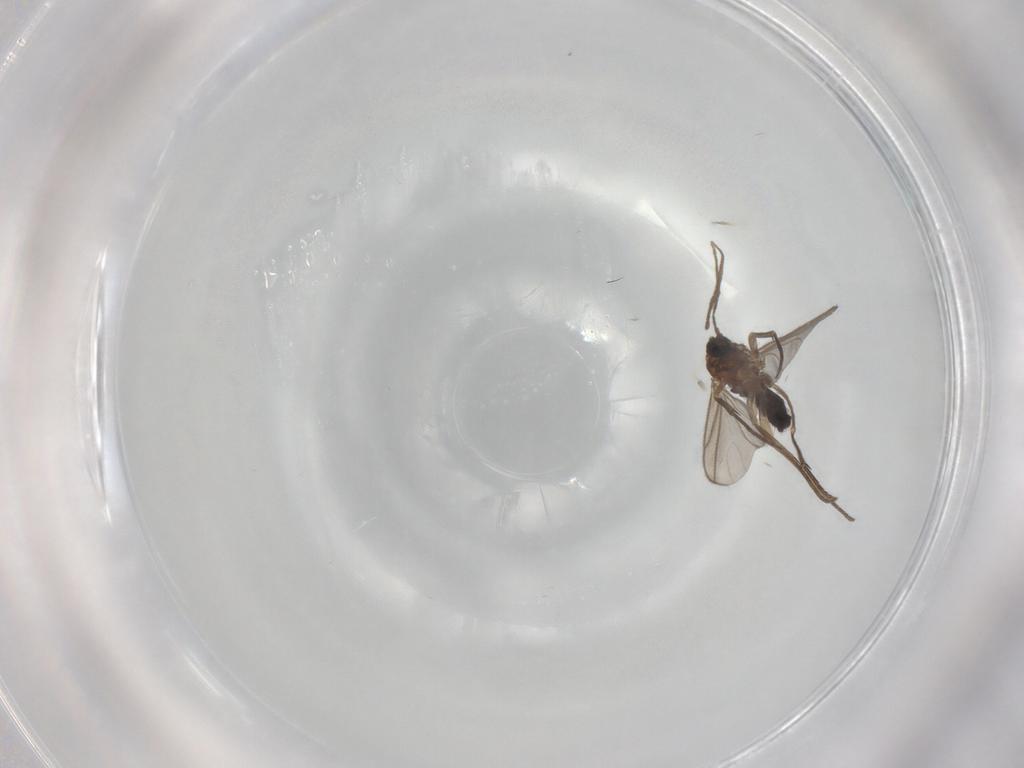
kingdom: Animalia
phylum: Arthropoda
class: Insecta
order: Diptera
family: Sciaridae
